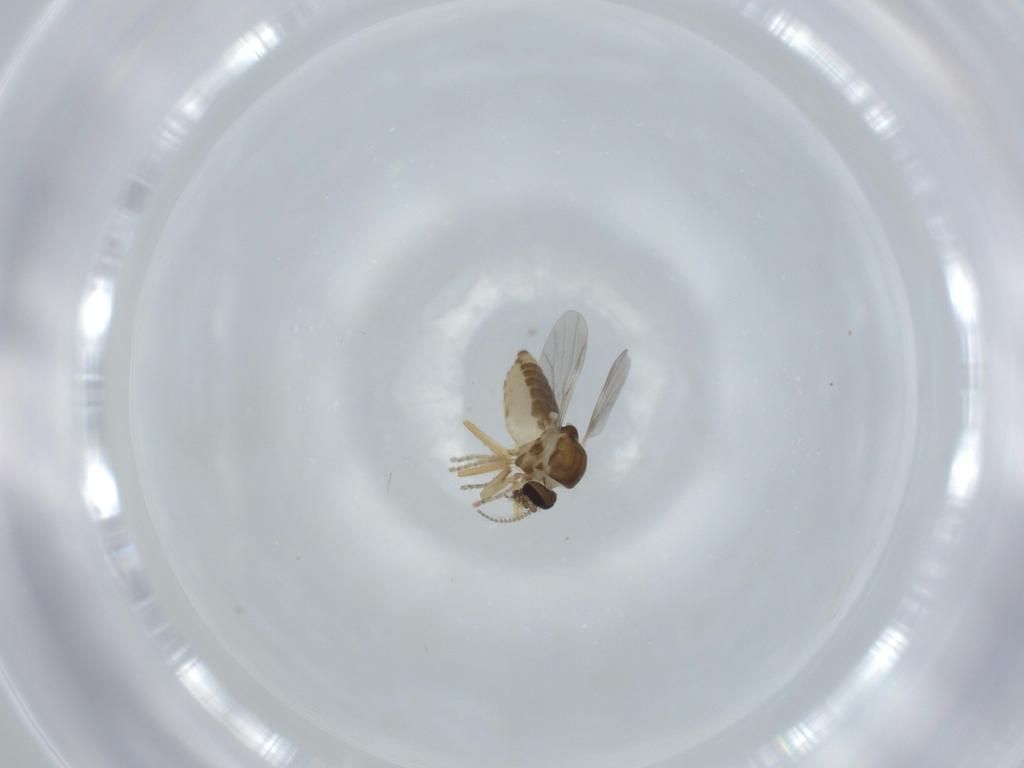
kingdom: Animalia
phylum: Arthropoda
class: Insecta
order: Diptera
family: Ceratopogonidae
